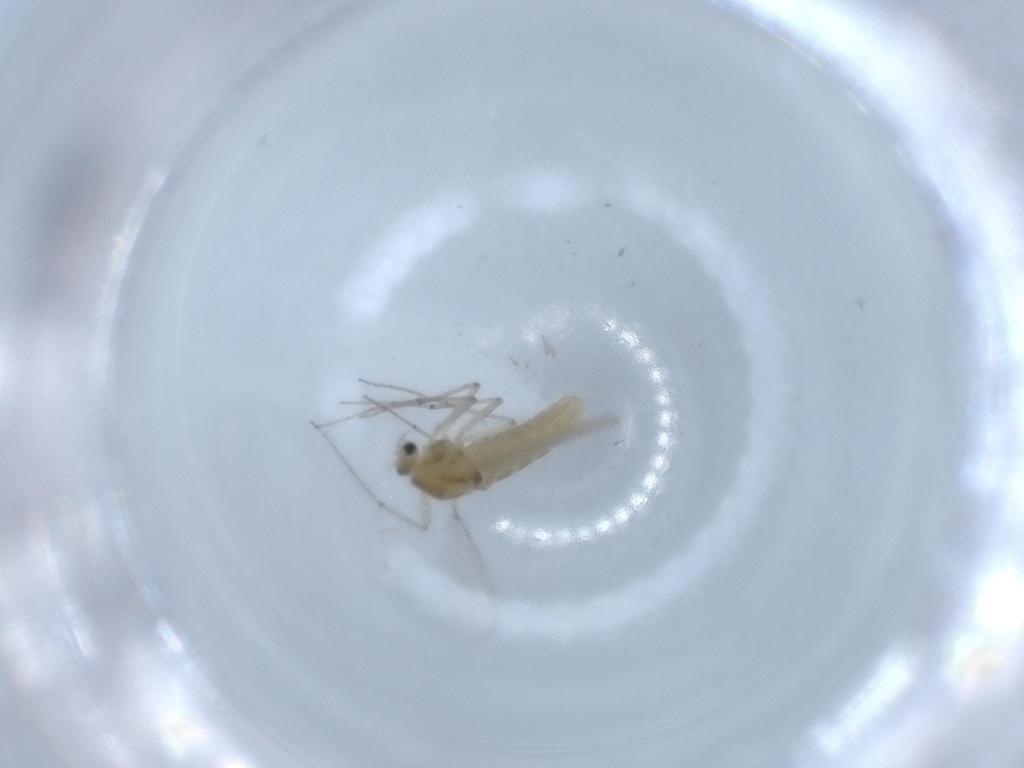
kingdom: Animalia
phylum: Arthropoda
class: Insecta
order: Diptera
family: Chironomidae
